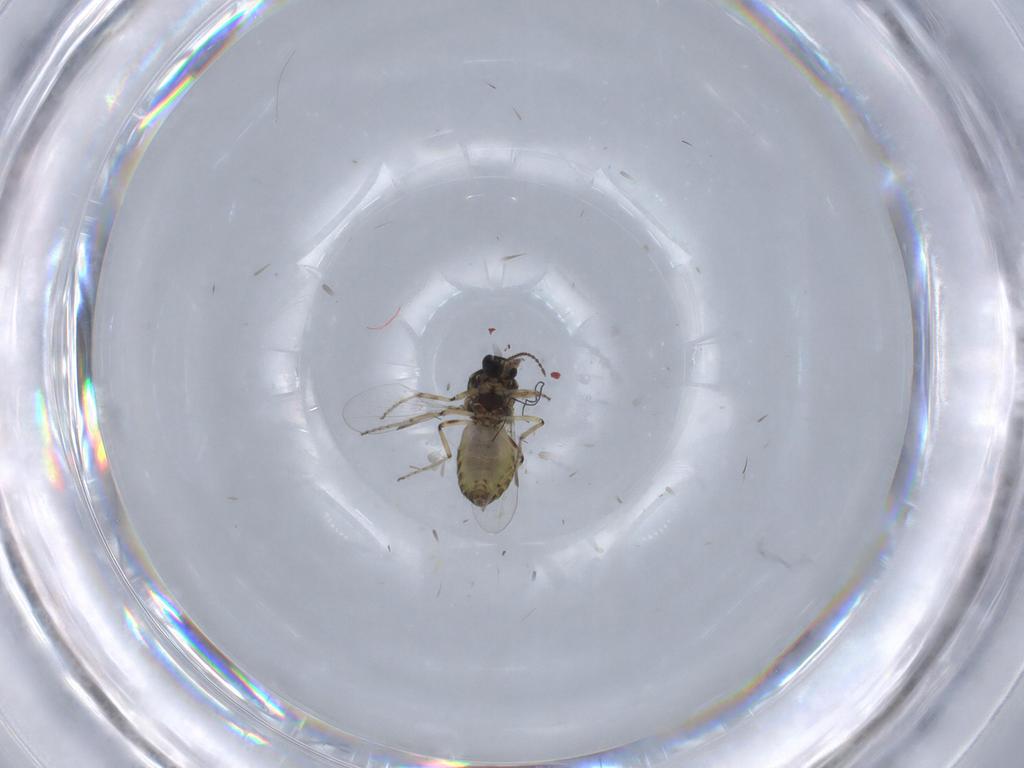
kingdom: Animalia
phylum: Arthropoda
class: Insecta
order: Diptera
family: Ceratopogonidae
